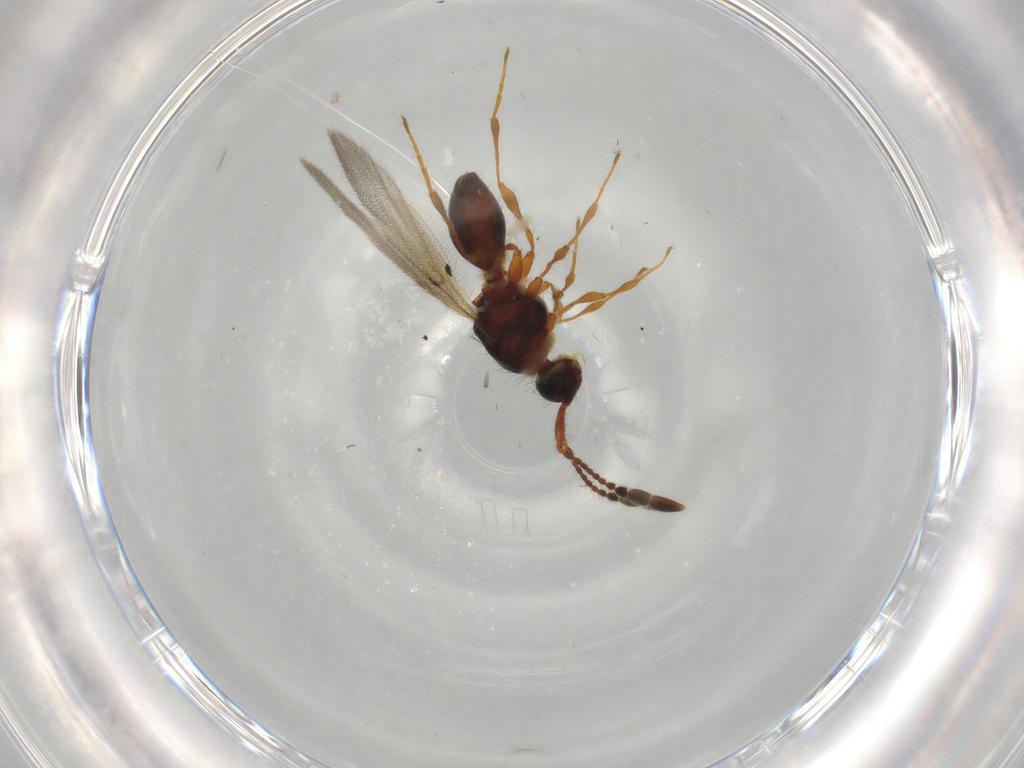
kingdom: Animalia
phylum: Arthropoda
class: Insecta
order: Hymenoptera
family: Diapriidae
